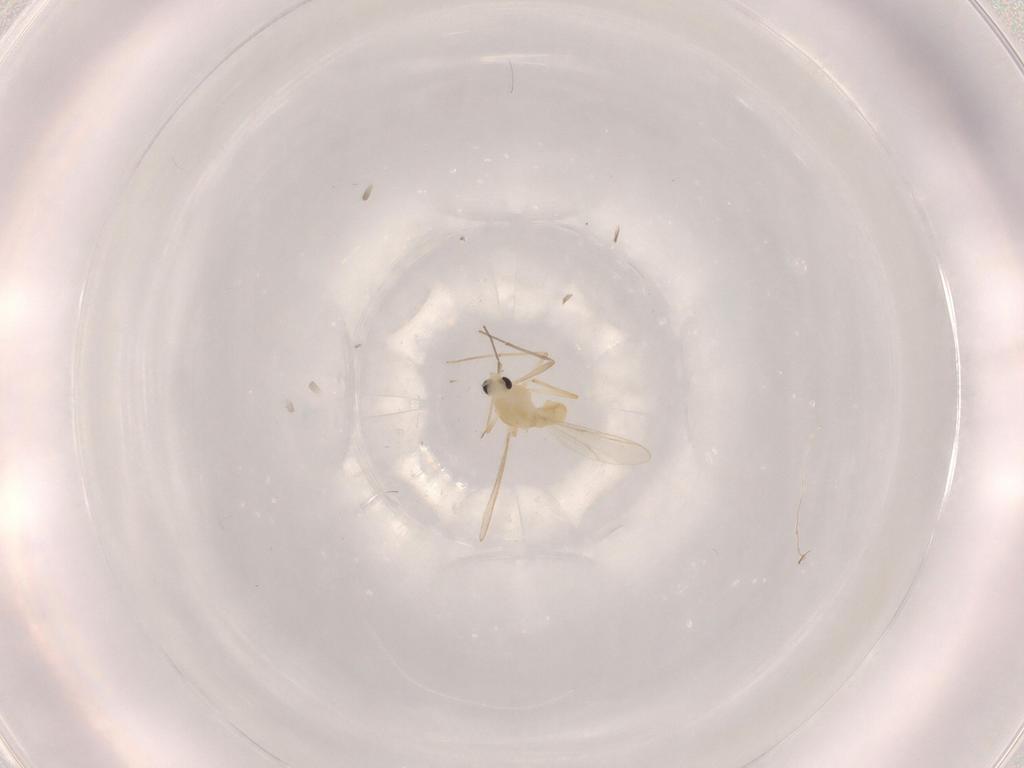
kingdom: Animalia
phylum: Arthropoda
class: Insecta
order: Diptera
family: Chironomidae
